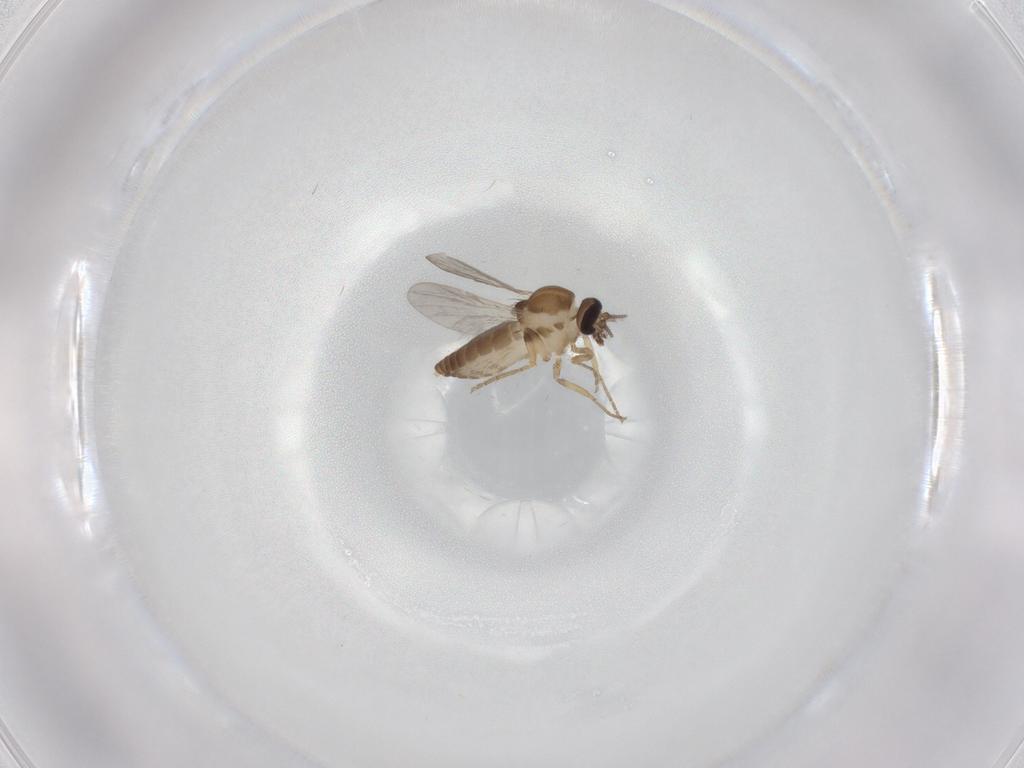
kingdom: Animalia
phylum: Arthropoda
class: Insecta
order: Diptera
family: Ceratopogonidae
